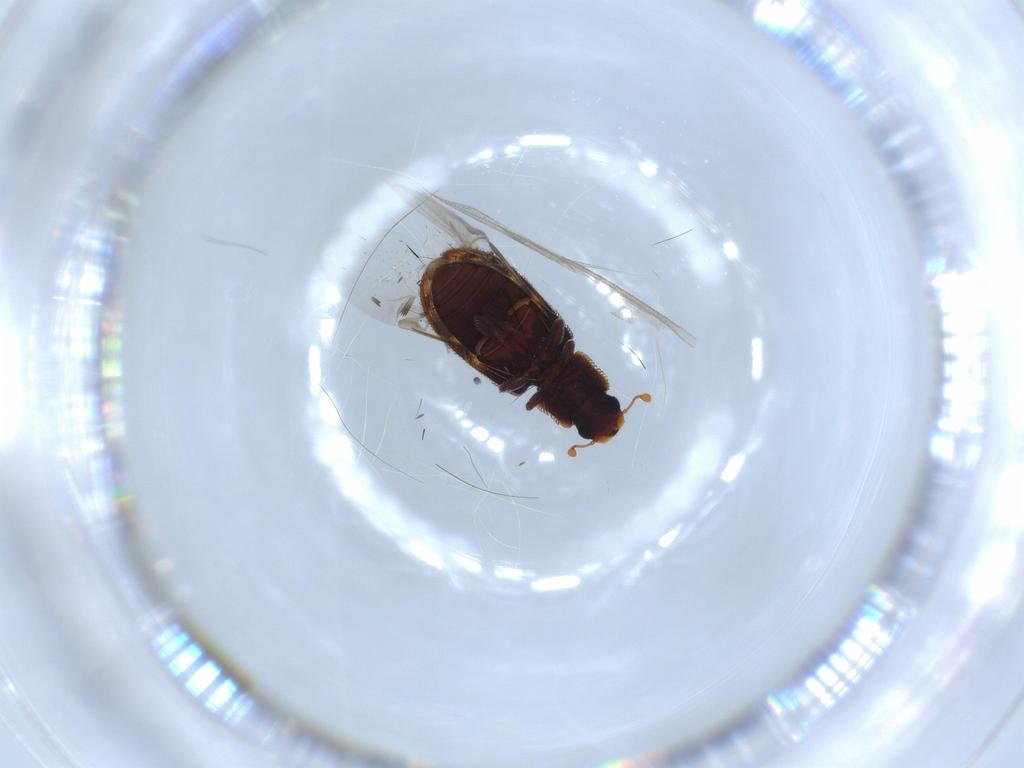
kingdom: Animalia
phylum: Arthropoda
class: Insecta
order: Coleoptera
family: Zopheridae
